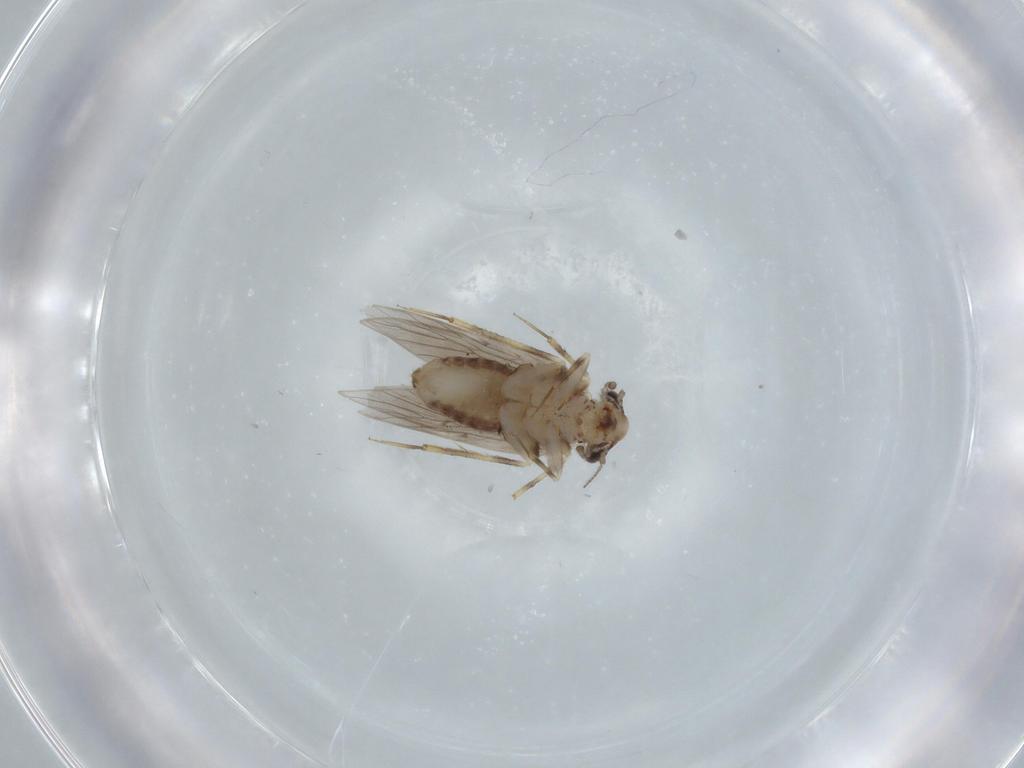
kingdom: Animalia
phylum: Arthropoda
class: Insecta
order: Psocodea
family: Lepidopsocidae
